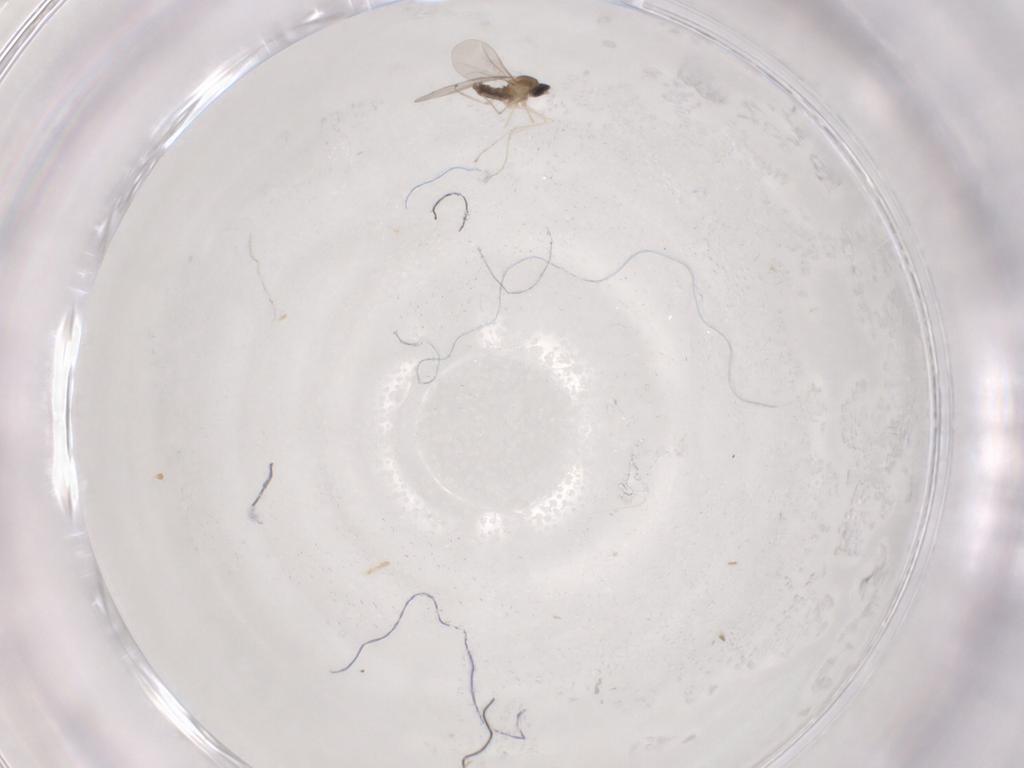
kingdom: Animalia
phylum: Arthropoda
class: Insecta
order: Diptera
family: Cecidomyiidae
